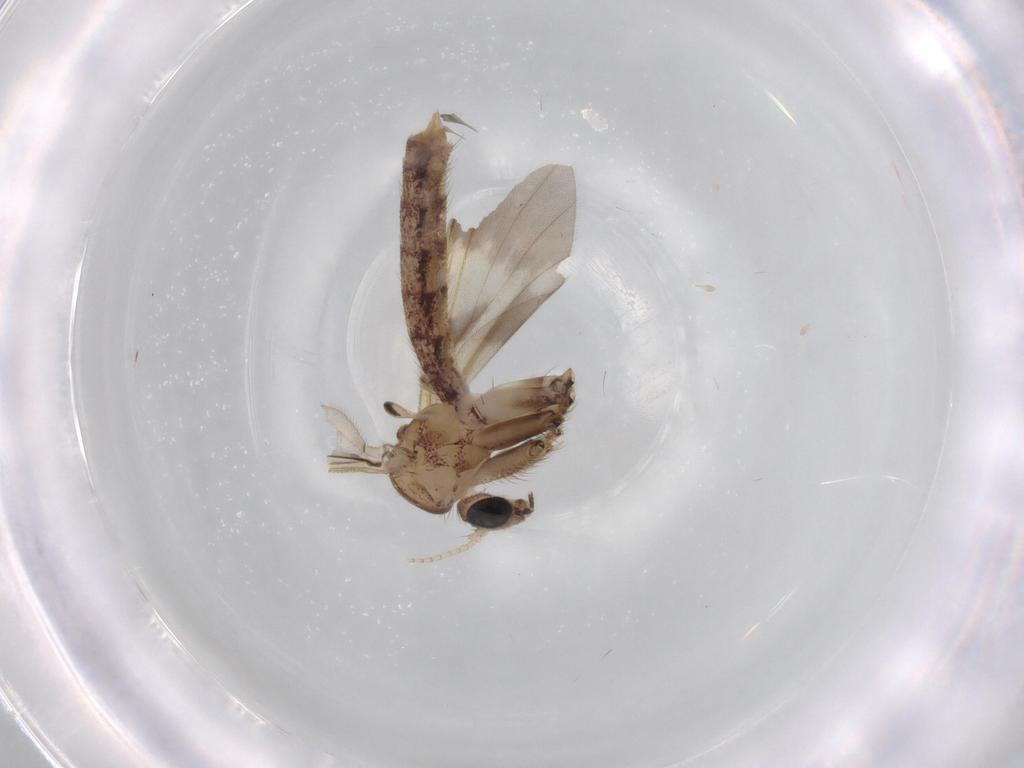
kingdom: Animalia
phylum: Arthropoda
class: Insecta
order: Diptera
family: Mycetophilidae
